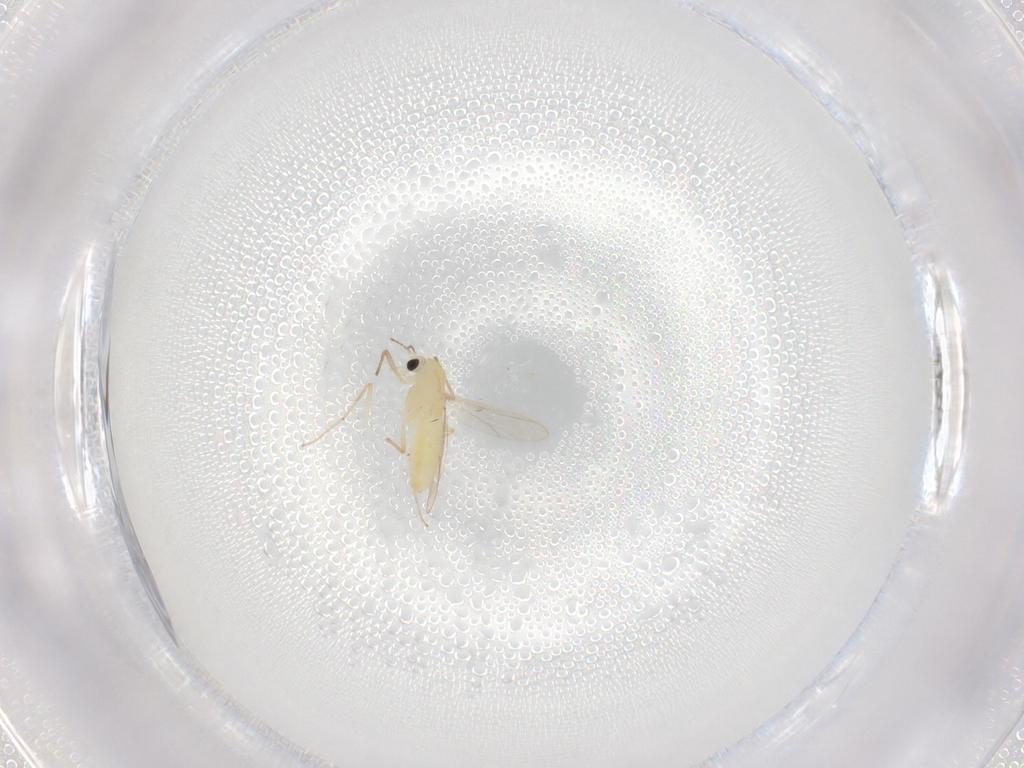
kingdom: Animalia
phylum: Arthropoda
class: Insecta
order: Diptera
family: Chironomidae
